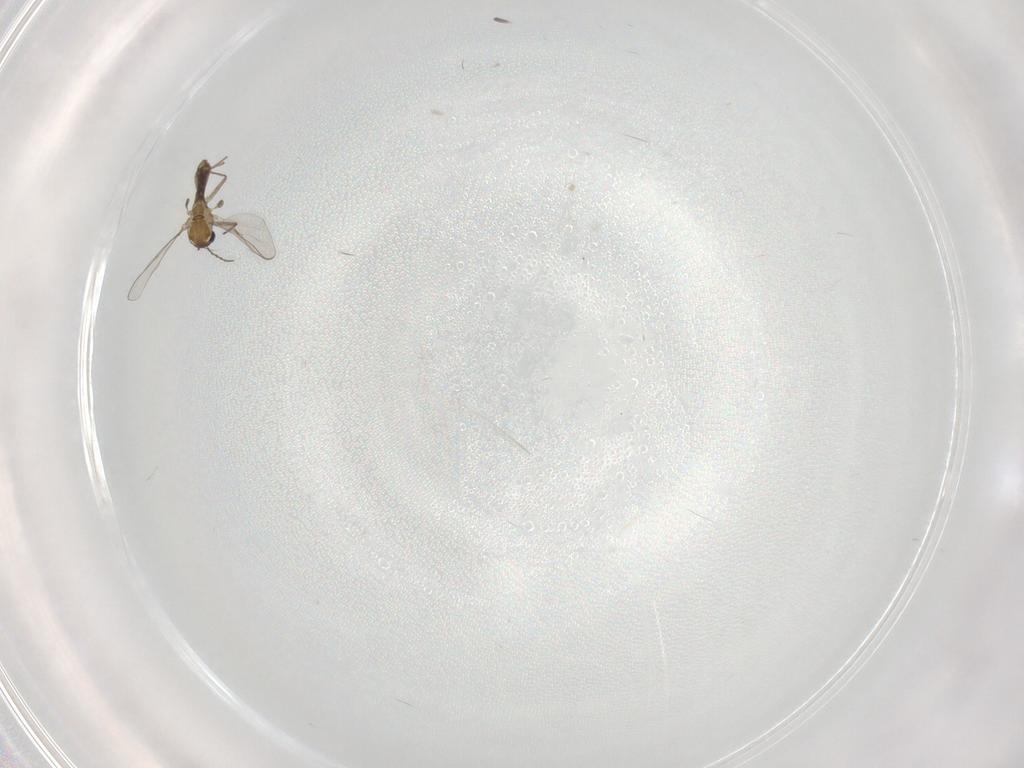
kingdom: Animalia
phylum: Arthropoda
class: Insecta
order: Diptera
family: Chironomidae
